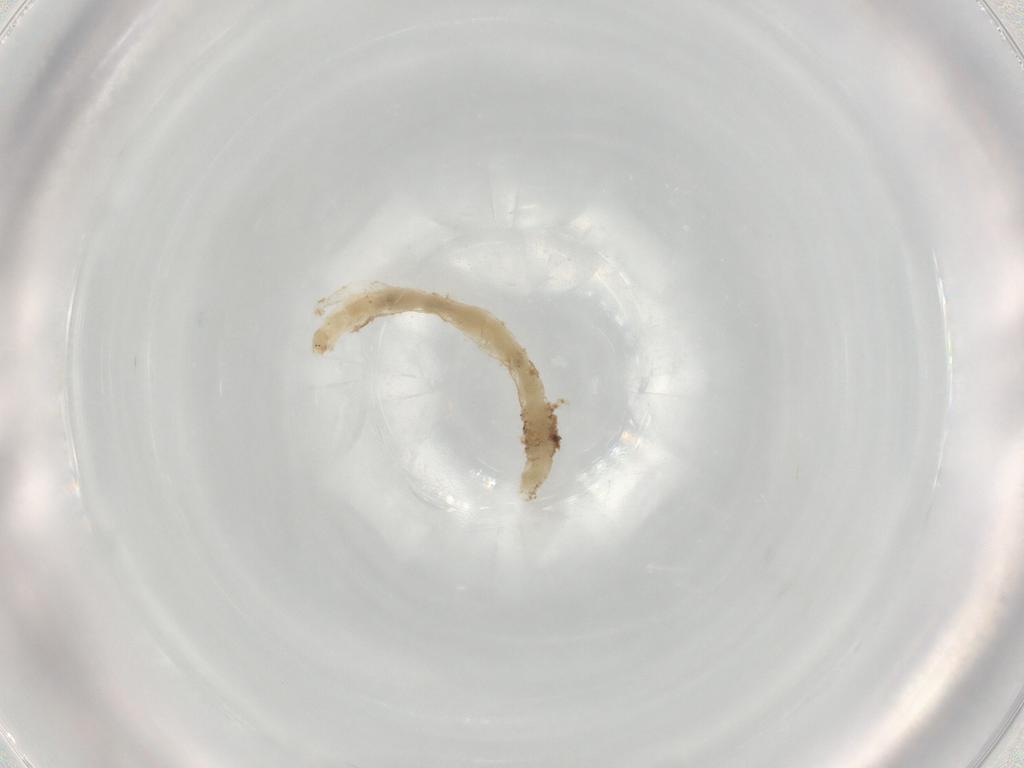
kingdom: Animalia
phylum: Arthropoda
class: Insecta
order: Diptera
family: Chironomidae
